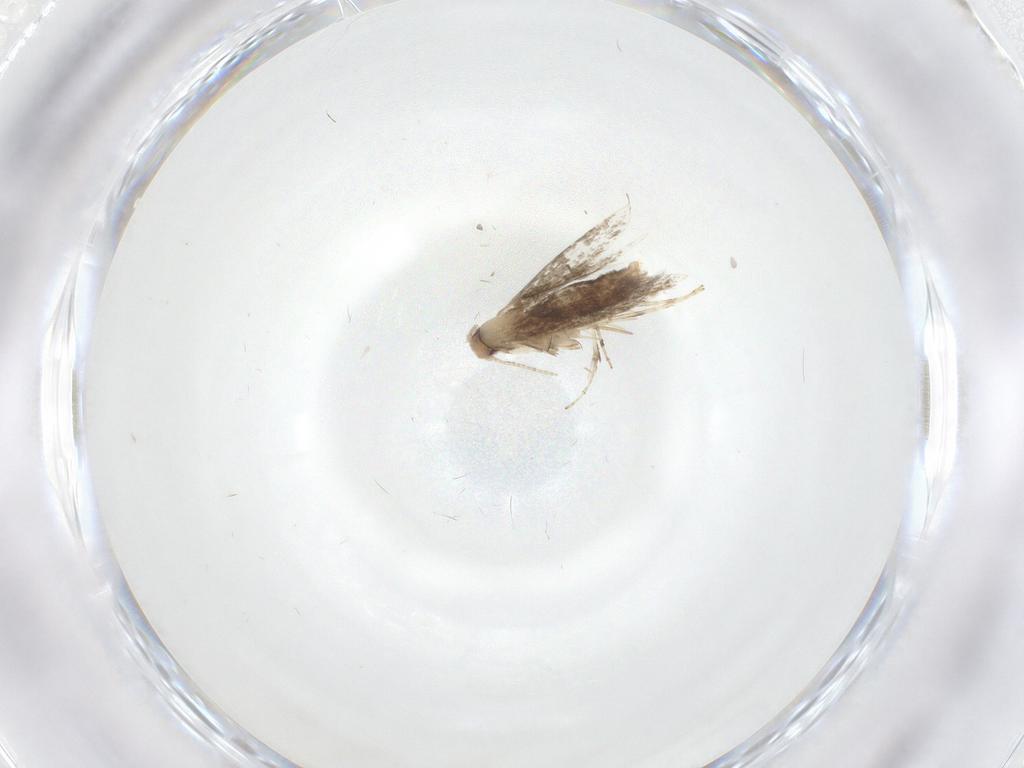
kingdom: Animalia
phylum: Arthropoda
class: Insecta
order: Lepidoptera
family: Gracillariidae
